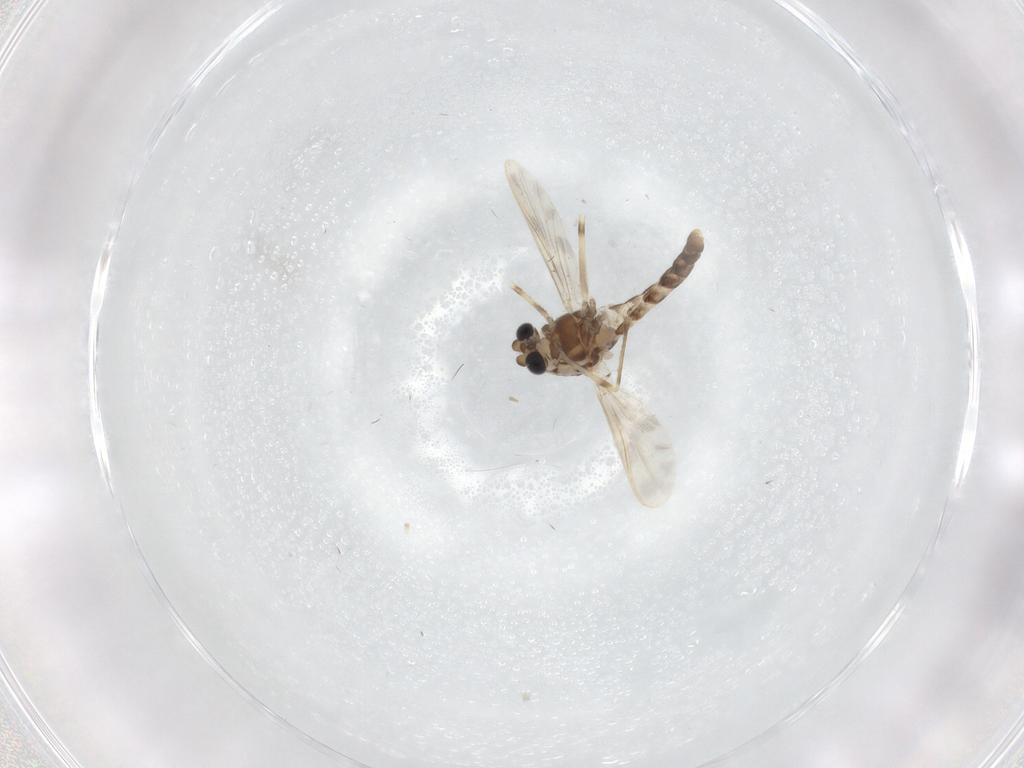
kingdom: Animalia
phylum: Arthropoda
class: Insecta
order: Diptera
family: Chironomidae
